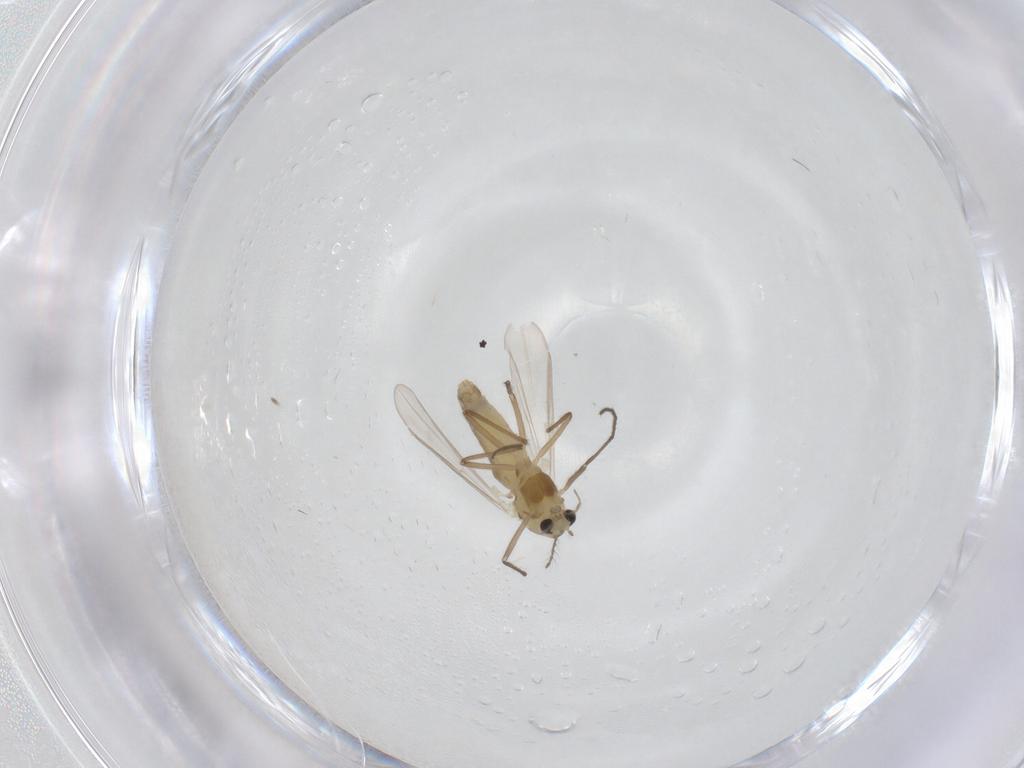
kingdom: Animalia
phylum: Arthropoda
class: Insecta
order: Diptera
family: Chironomidae
